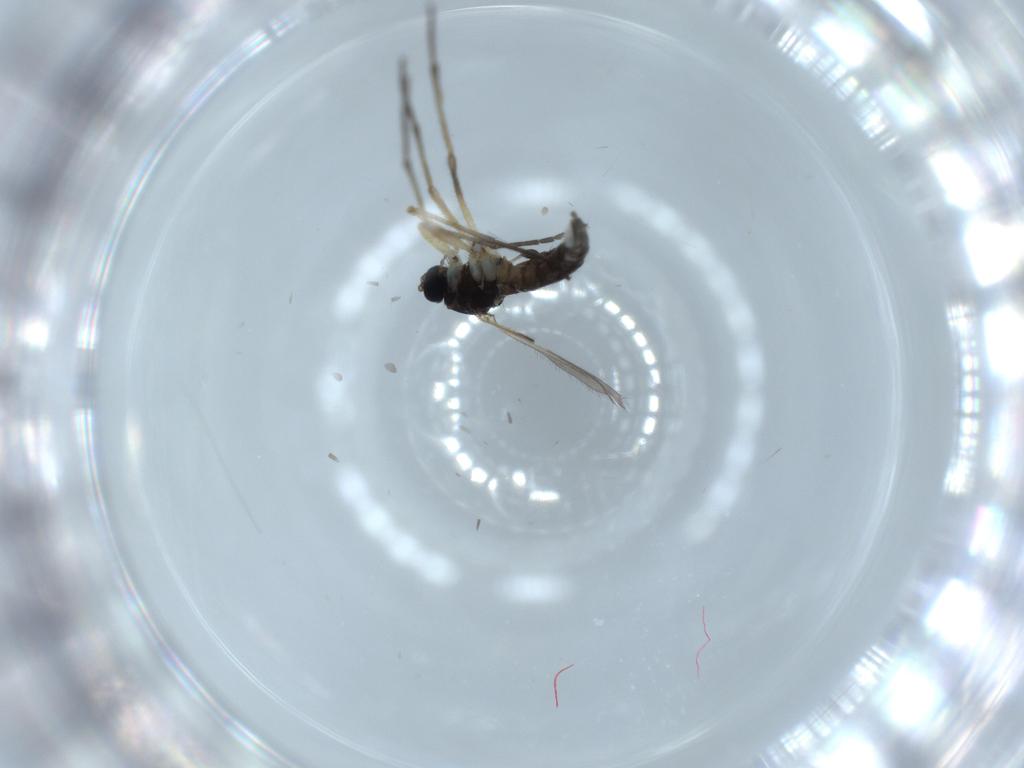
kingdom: Animalia
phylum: Arthropoda
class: Insecta
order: Diptera
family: Sciaridae
